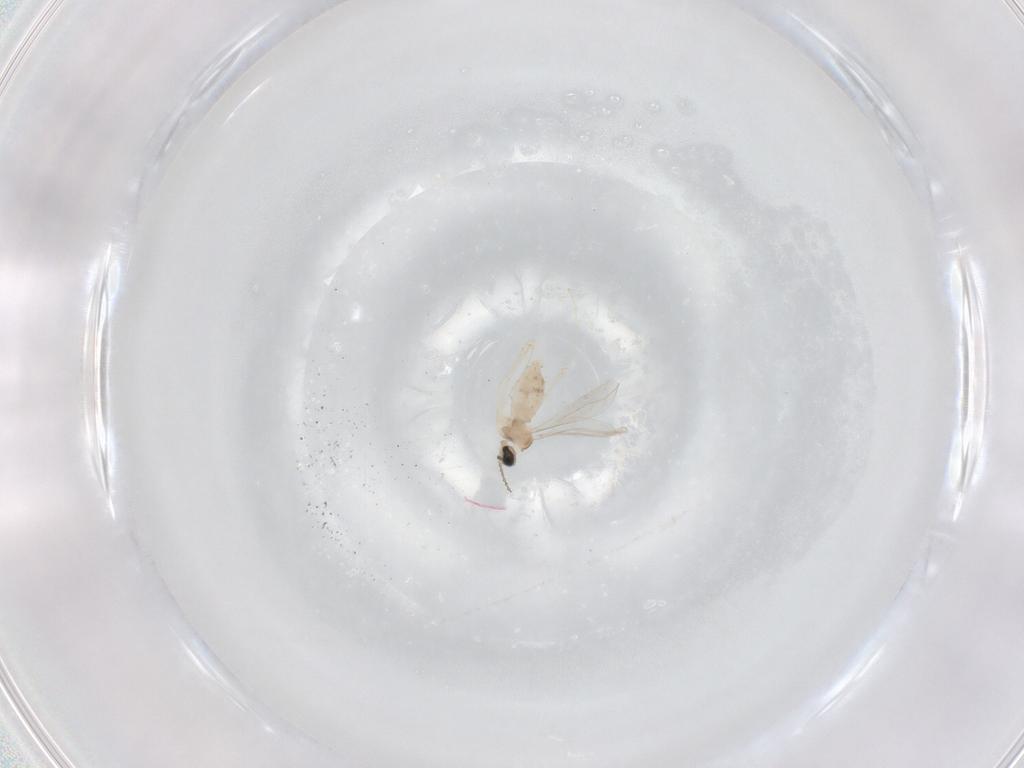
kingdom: Animalia
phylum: Arthropoda
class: Insecta
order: Diptera
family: Cecidomyiidae
